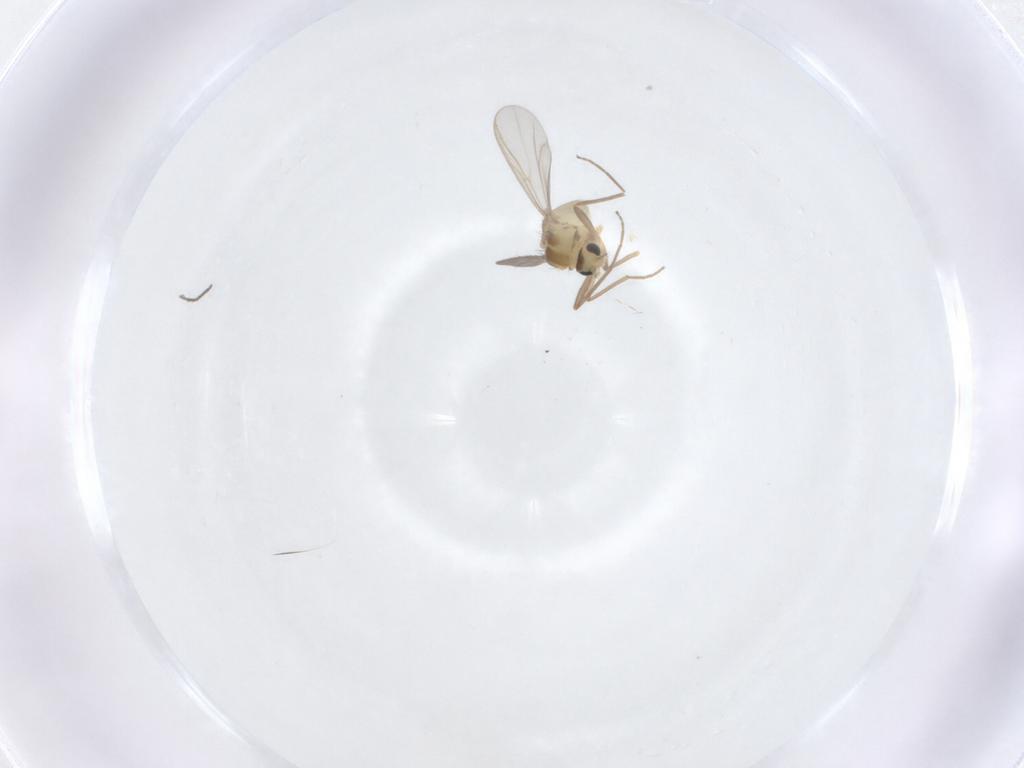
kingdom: Animalia
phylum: Arthropoda
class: Insecta
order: Diptera
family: Chironomidae
